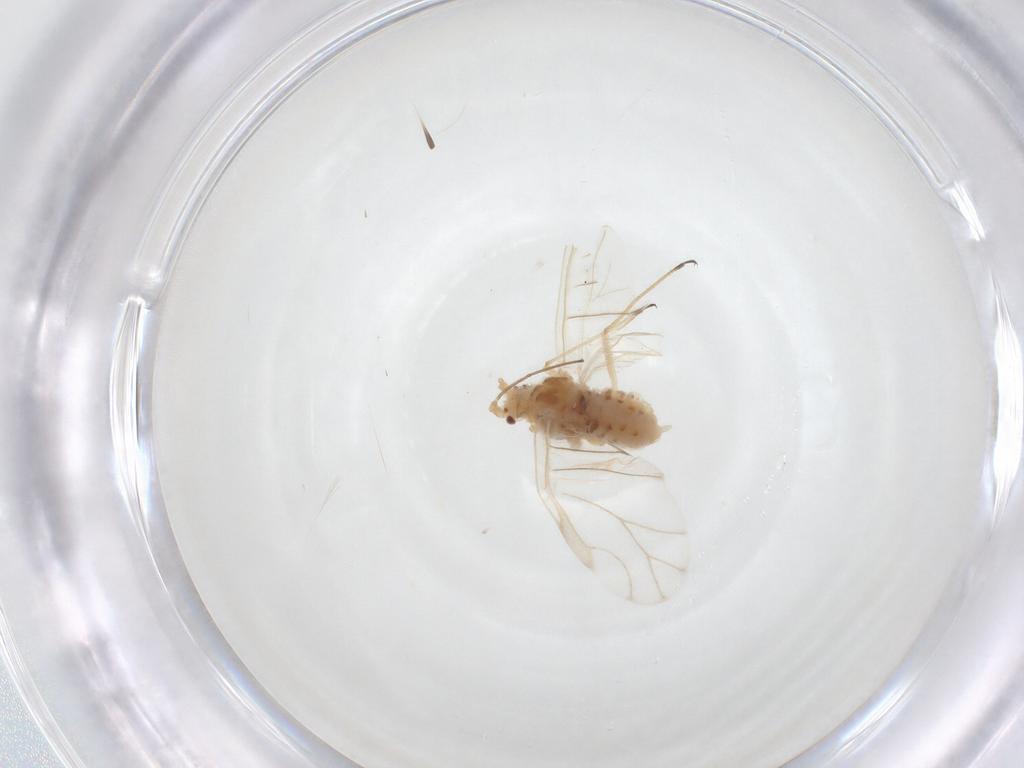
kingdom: Animalia
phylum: Arthropoda
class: Insecta
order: Hemiptera
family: Aphididae
